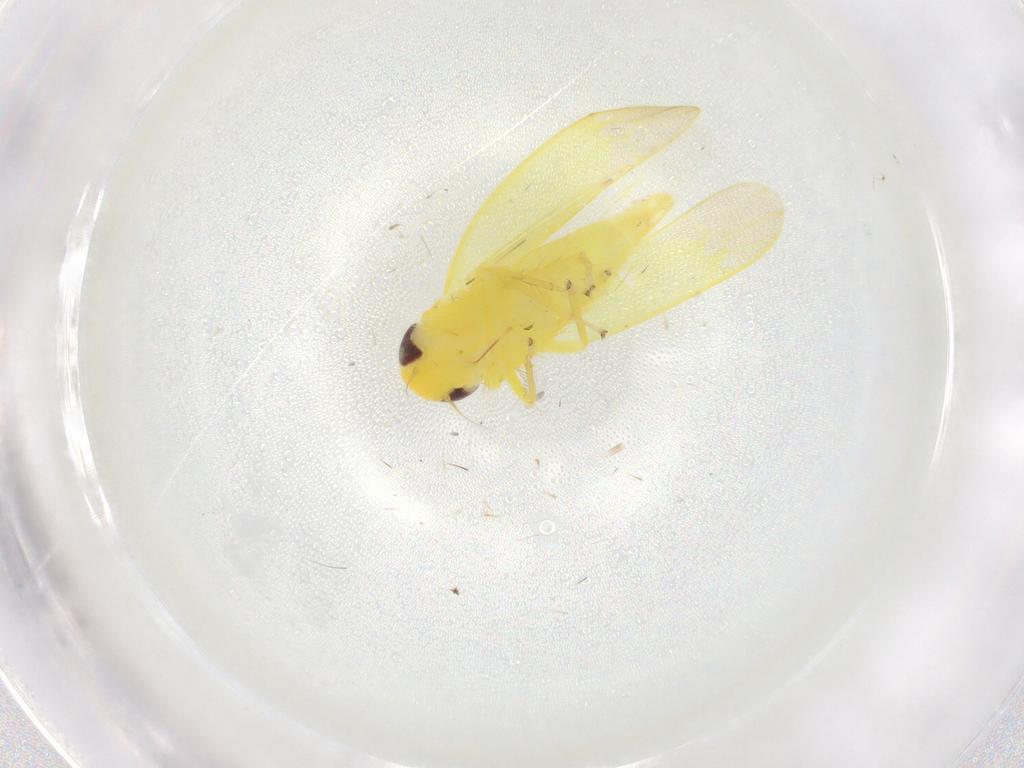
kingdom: Animalia
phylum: Arthropoda
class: Insecta
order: Hemiptera
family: Cicadellidae
